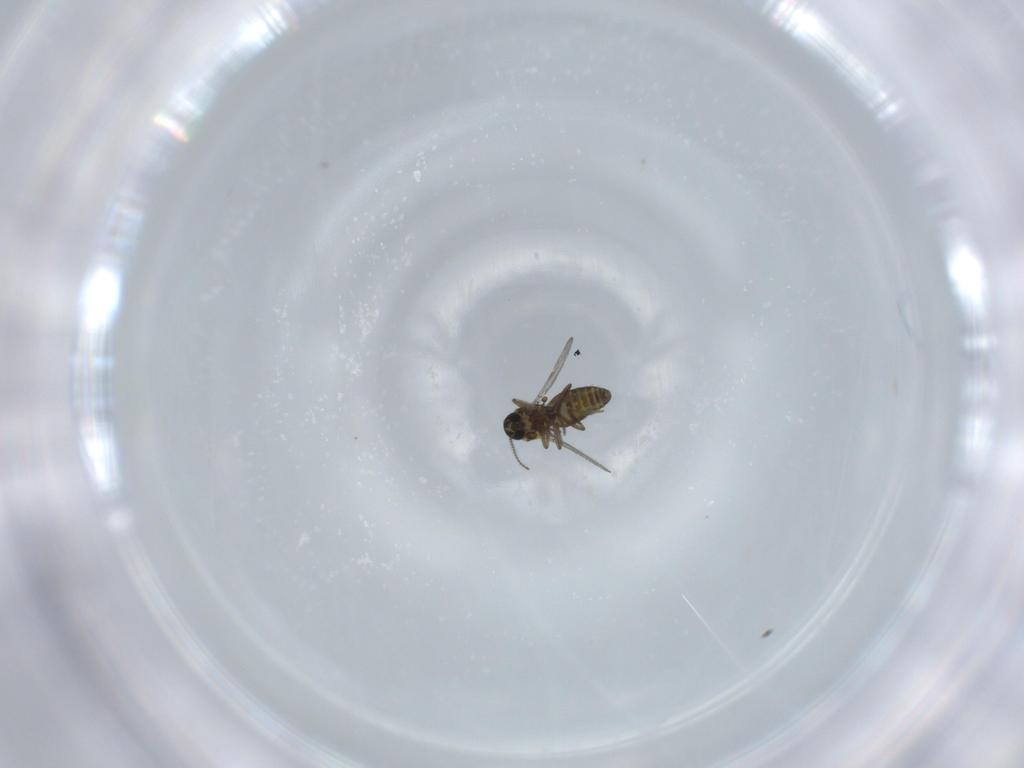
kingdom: Animalia
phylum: Arthropoda
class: Insecta
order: Diptera
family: Ceratopogonidae
